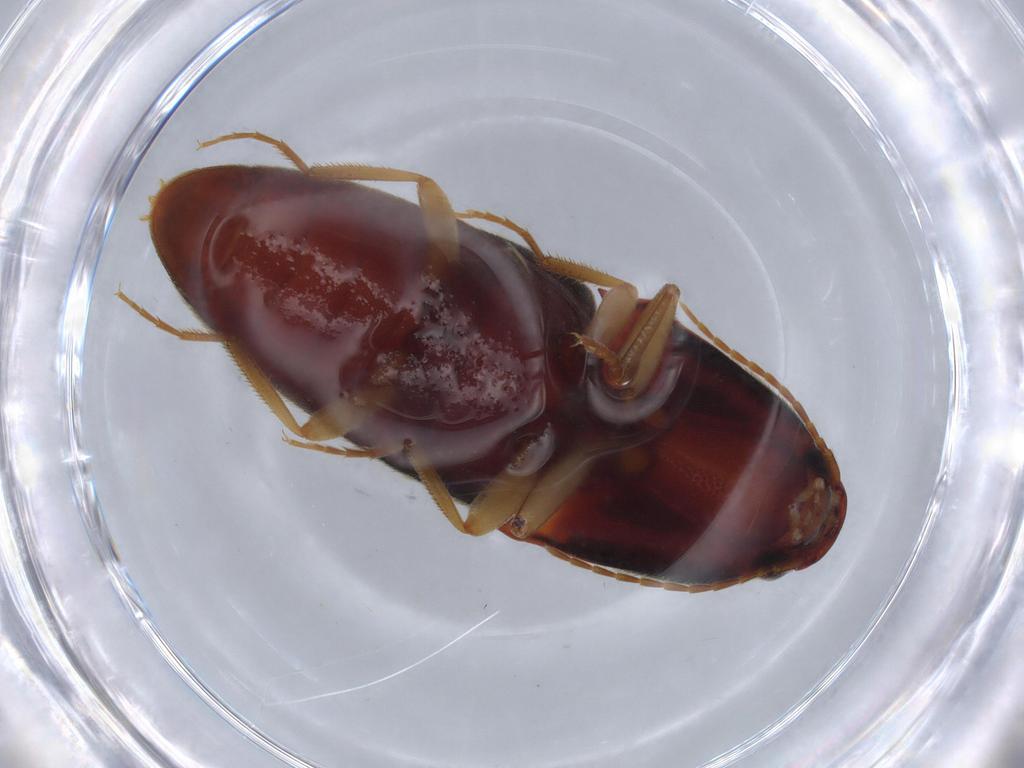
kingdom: Animalia
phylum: Arthropoda
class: Insecta
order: Coleoptera
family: Elateridae
